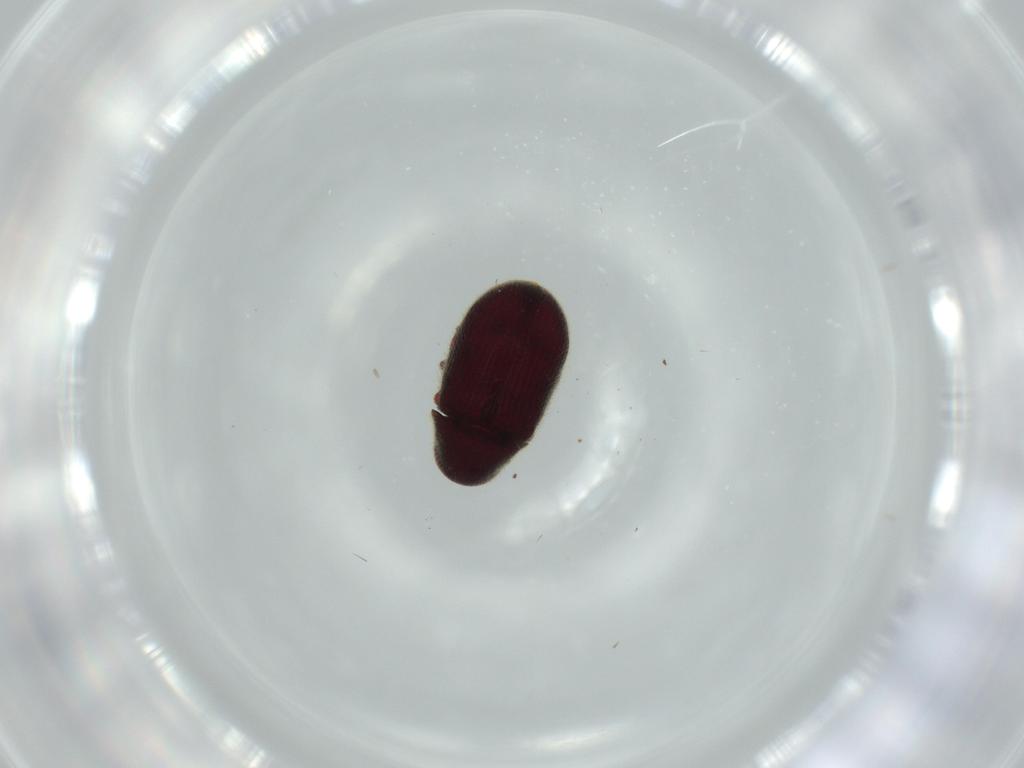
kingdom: Animalia
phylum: Arthropoda
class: Insecta
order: Coleoptera
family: Ptinidae
